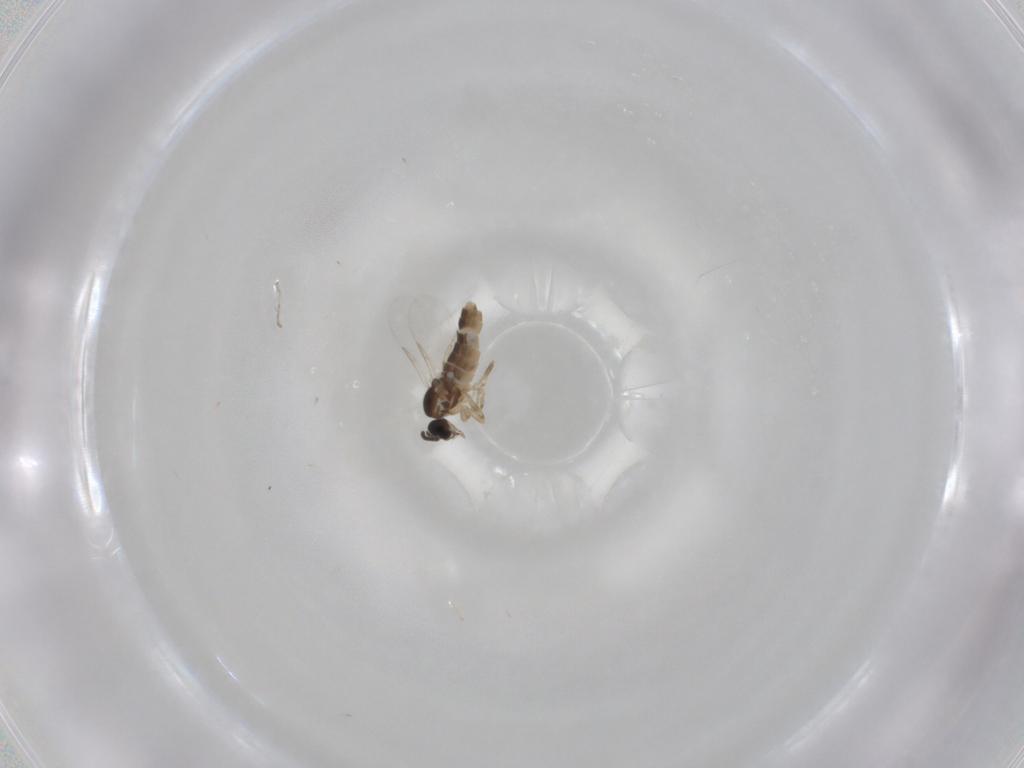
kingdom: Animalia
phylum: Arthropoda
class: Insecta
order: Diptera
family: Scatopsidae
